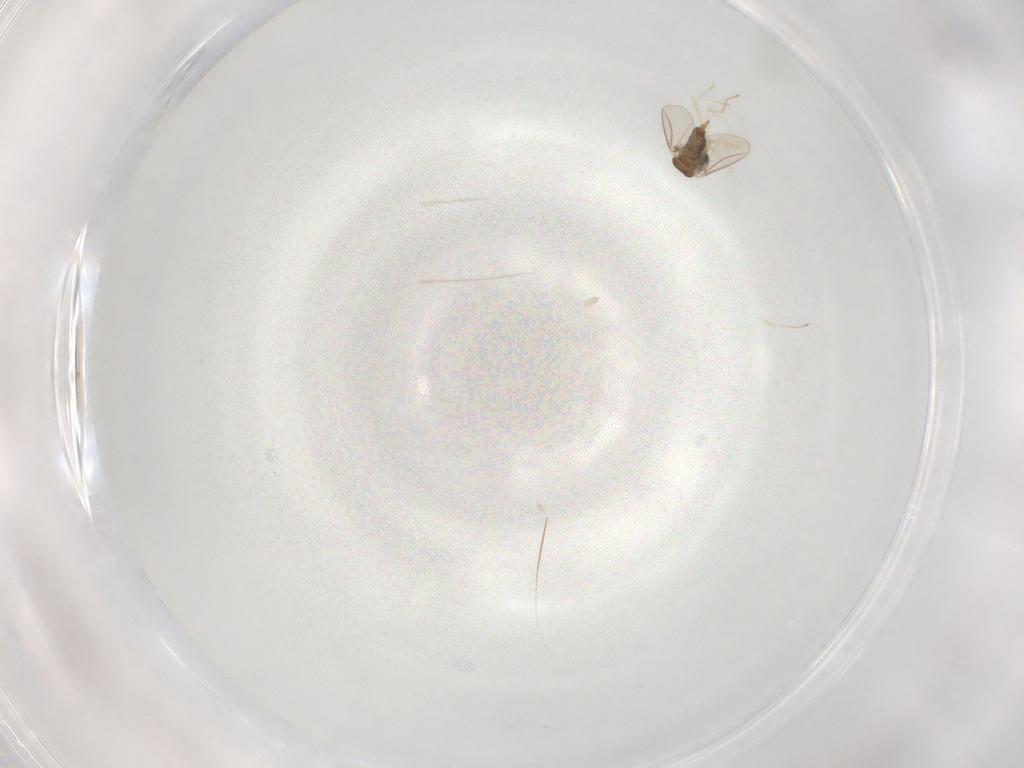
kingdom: Animalia
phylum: Arthropoda
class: Insecta
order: Diptera
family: Cecidomyiidae
